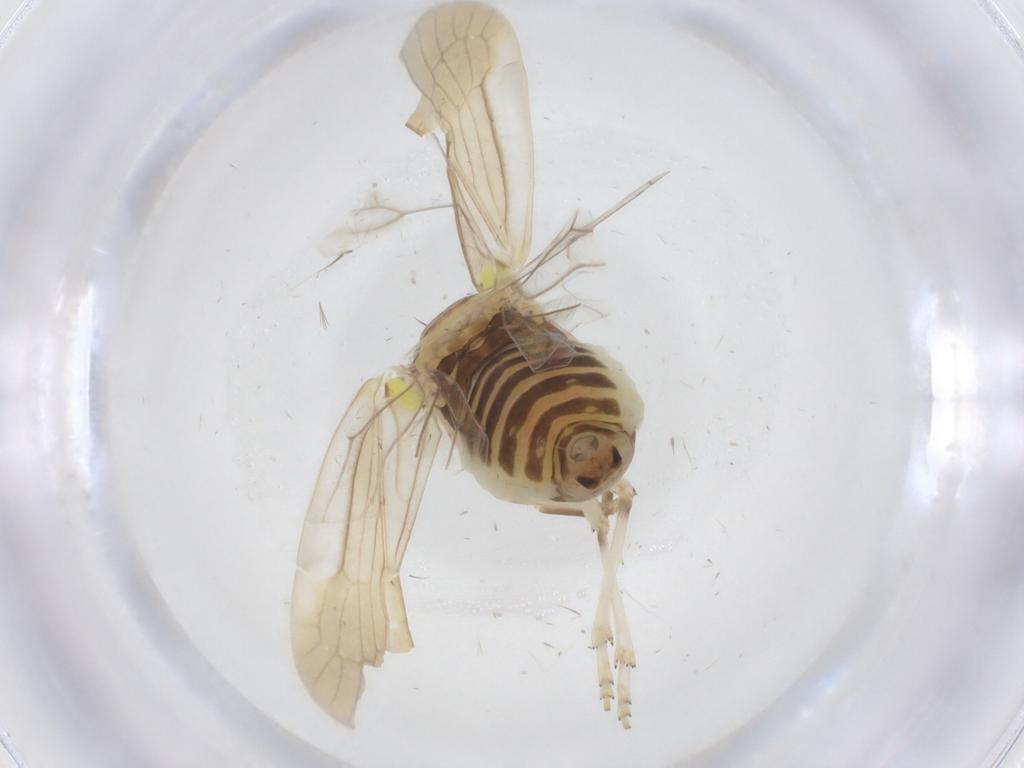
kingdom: Animalia
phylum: Arthropoda
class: Insecta
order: Hemiptera
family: Achilidae
